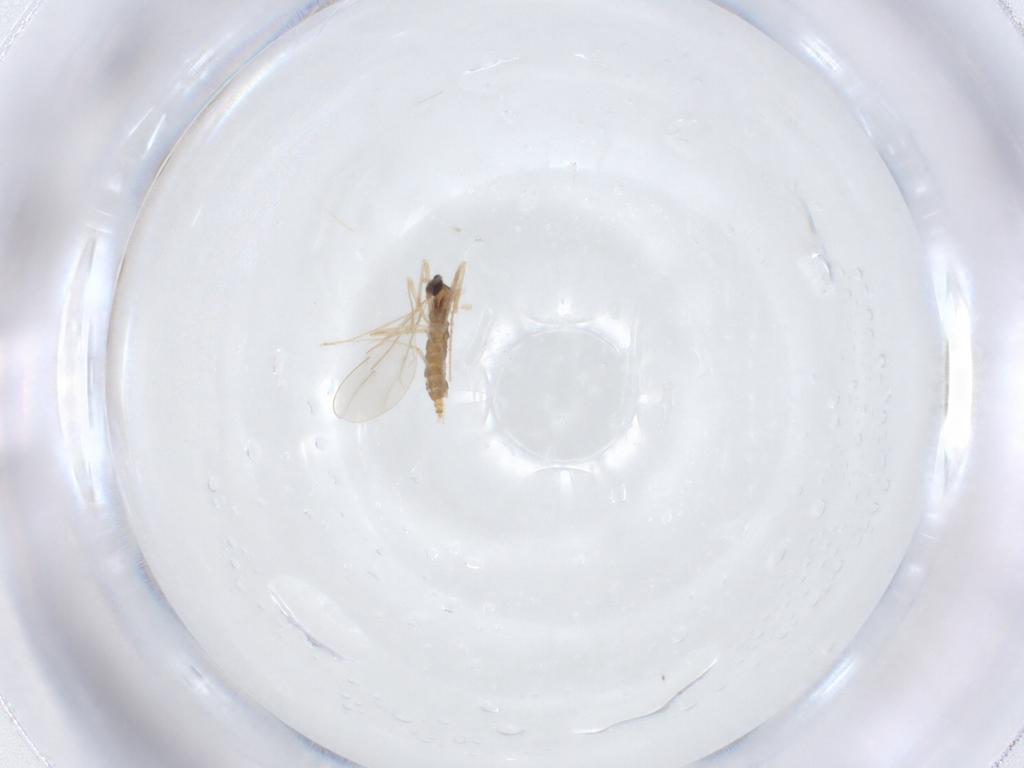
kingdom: Animalia
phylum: Arthropoda
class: Insecta
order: Diptera
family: Cecidomyiidae
